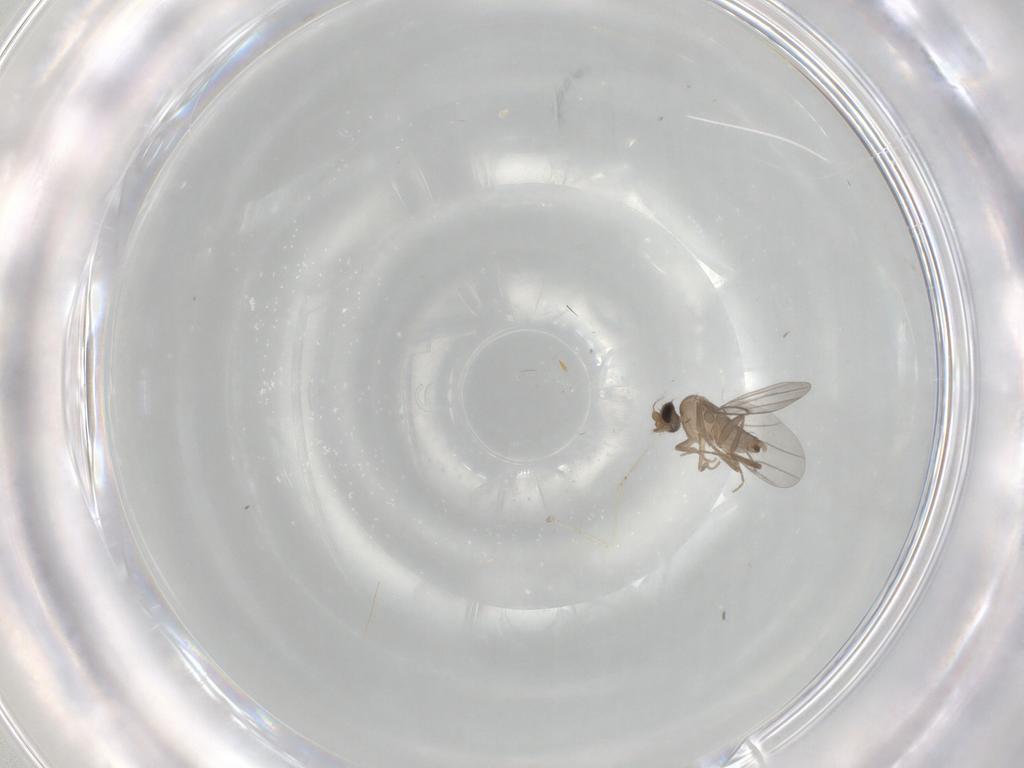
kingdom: Animalia
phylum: Arthropoda
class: Insecta
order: Diptera
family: Cecidomyiidae
